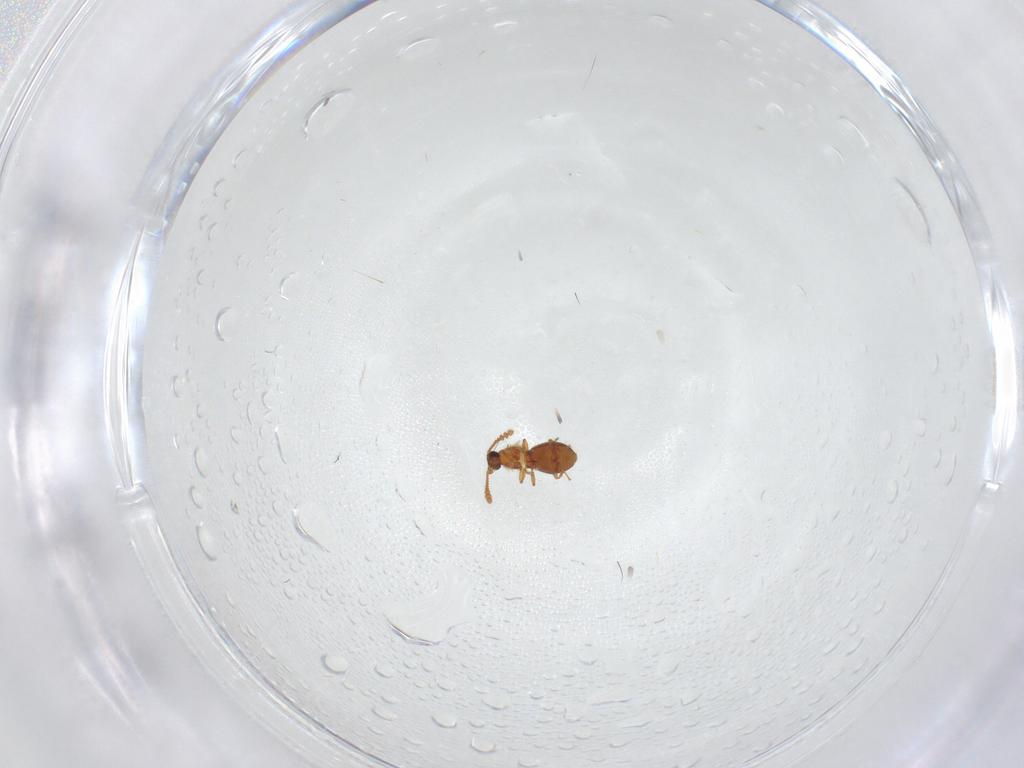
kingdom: Animalia
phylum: Arthropoda
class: Insecta
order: Coleoptera
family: Staphylinidae
